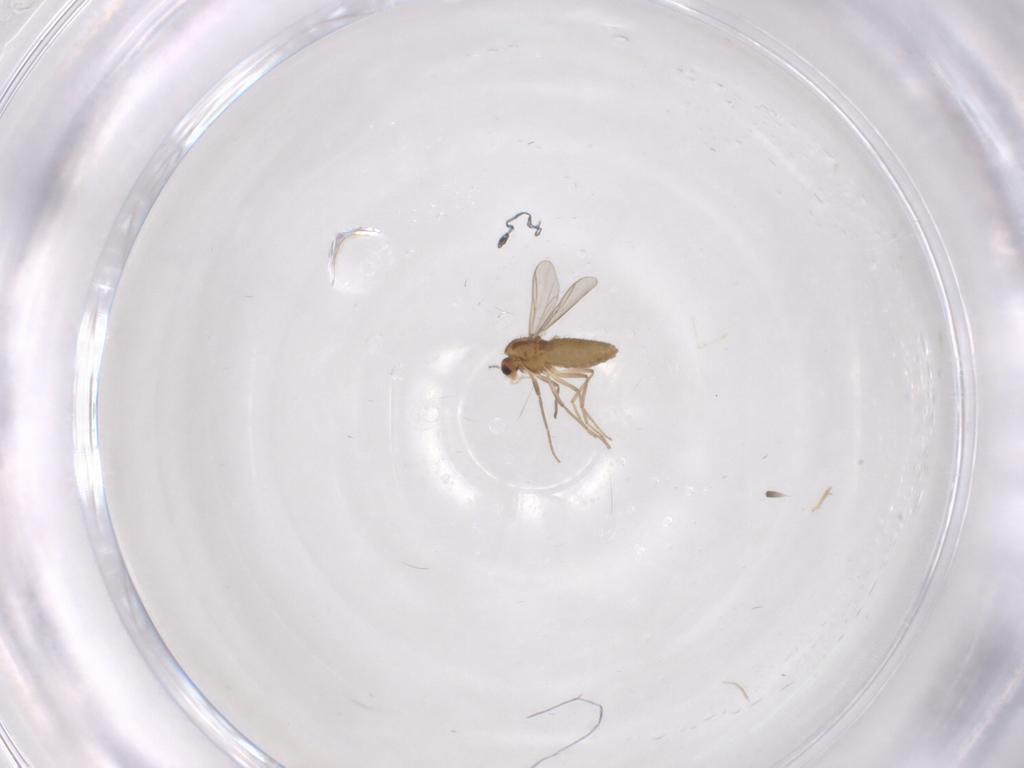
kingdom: Animalia
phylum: Arthropoda
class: Insecta
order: Diptera
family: Chironomidae
